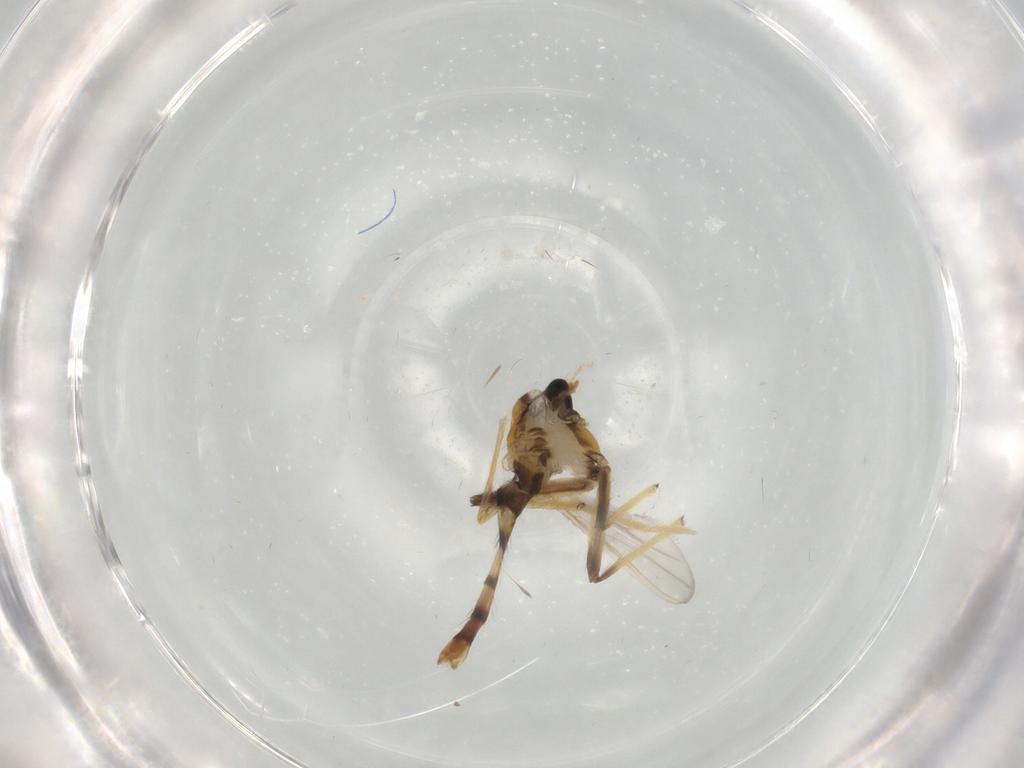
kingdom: Animalia
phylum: Arthropoda
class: Insecta
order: Diptera
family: Chironomidae
